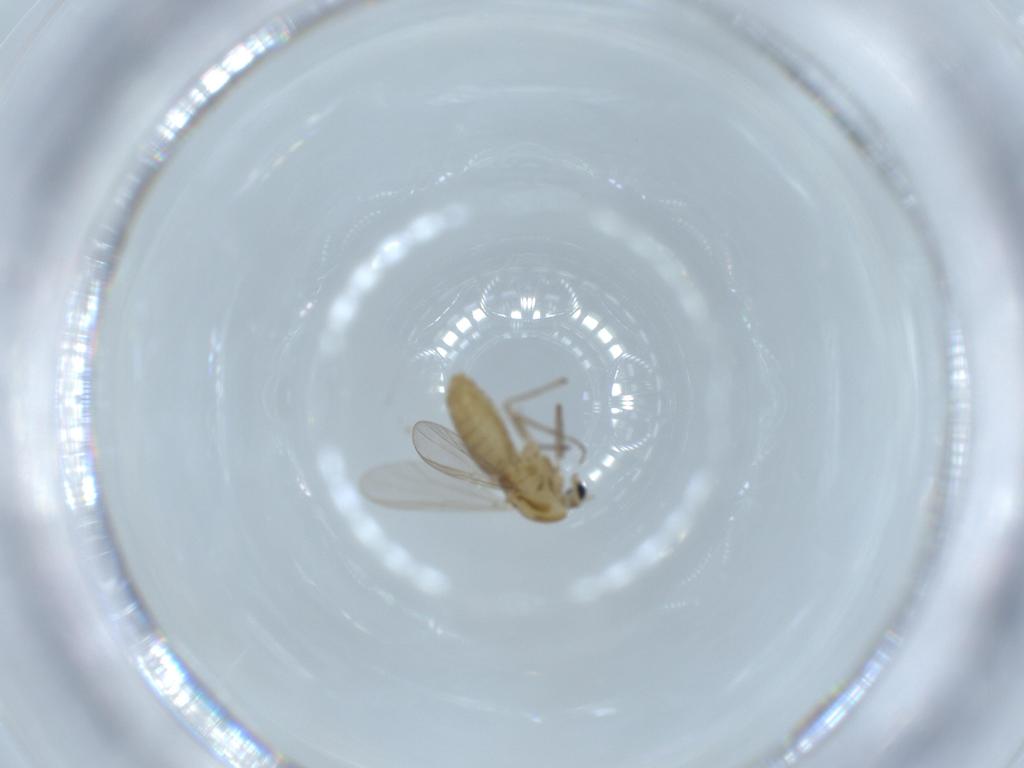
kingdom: Animalia
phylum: Arthropoda
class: Insecta
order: Diptera
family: Chironomidae
